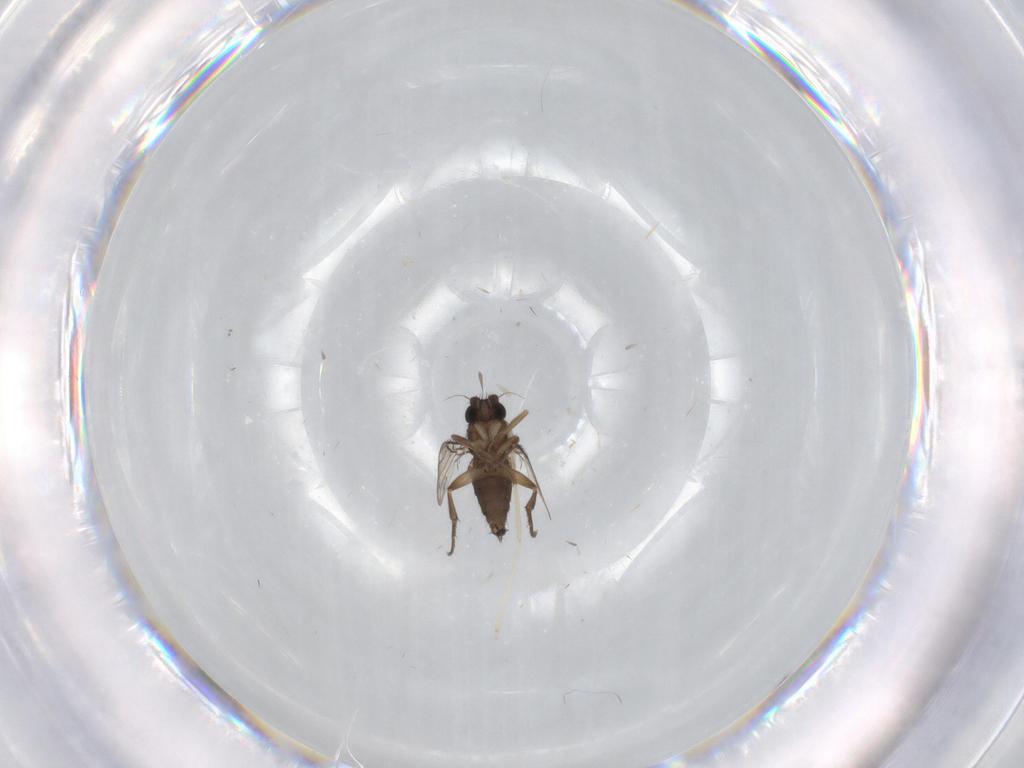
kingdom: Animalia
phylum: Arthropoda
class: Insecta
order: Diptera
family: Phoridae
